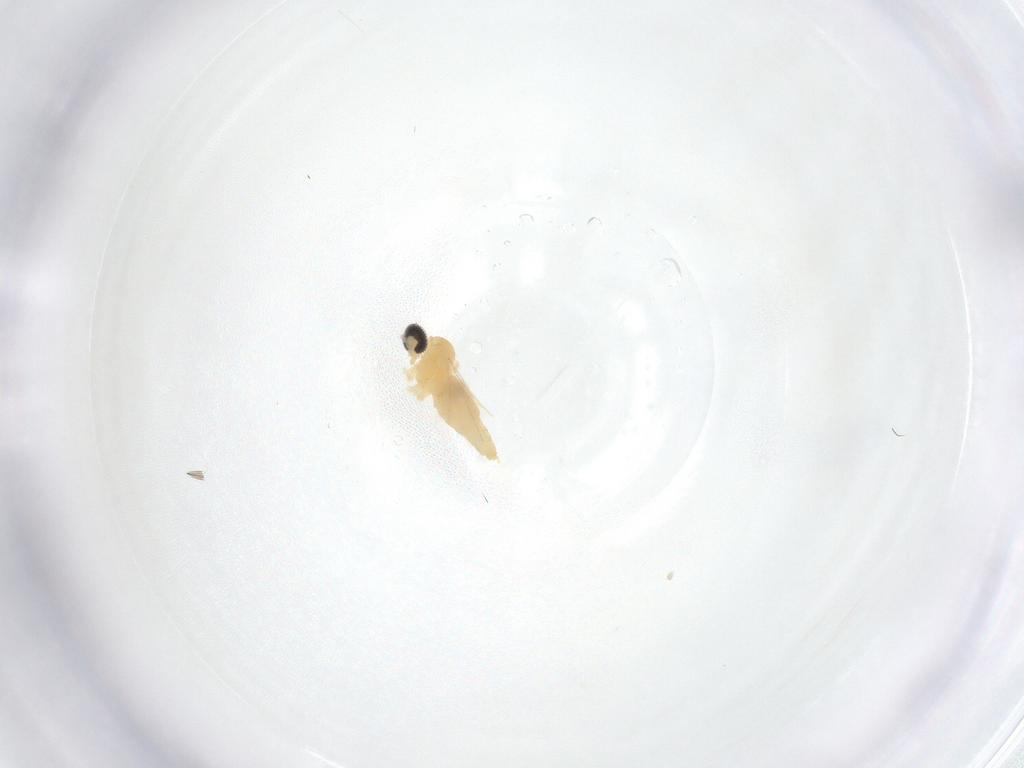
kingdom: Animalia
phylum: Arthropoda
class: Insecta
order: Diptera
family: Cecidomyiidae
